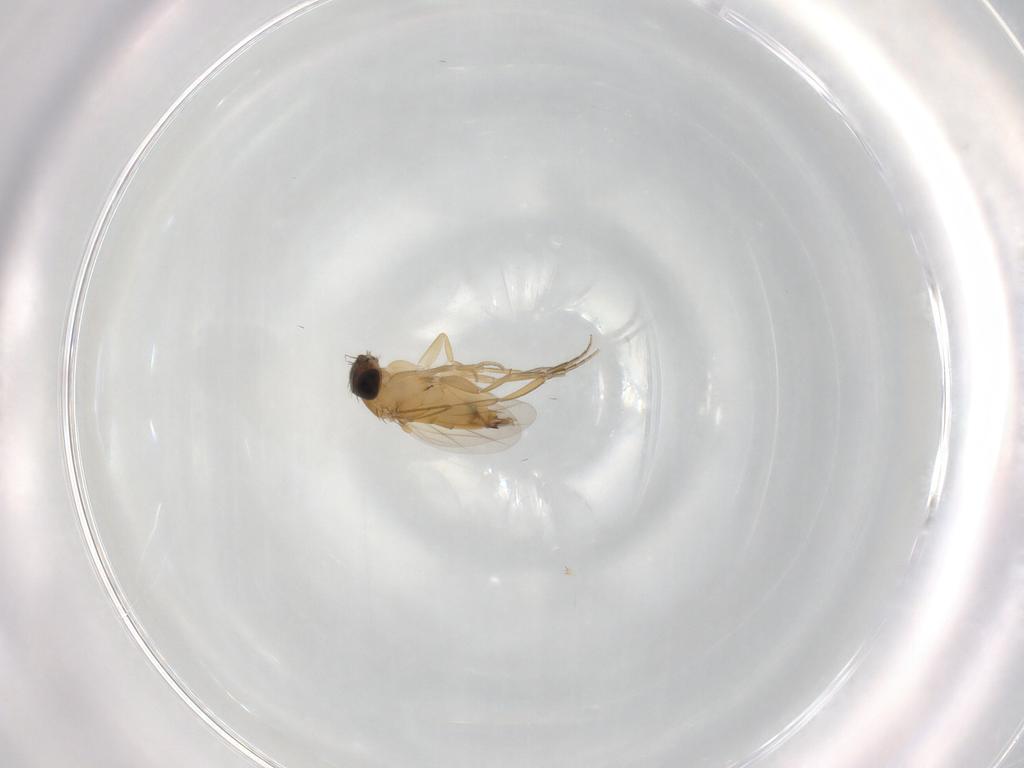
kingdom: Animalia
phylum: Arthropoda
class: Insecta
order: Diptera
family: Phoridae
